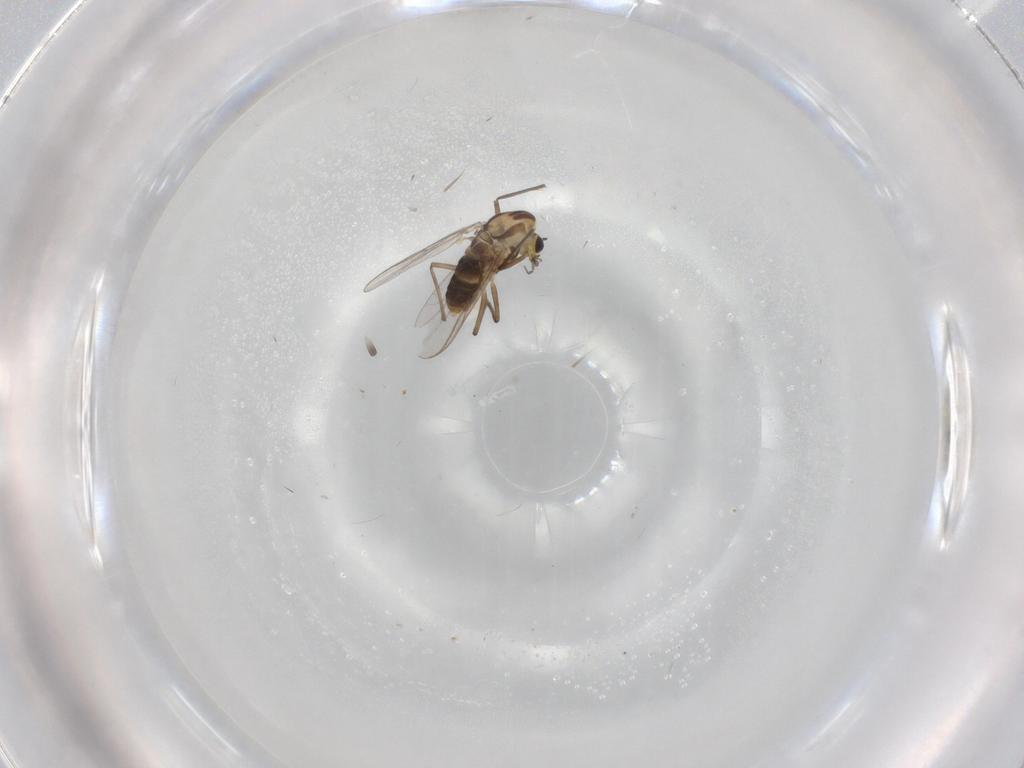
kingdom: Animalia
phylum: Arthropoda
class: Insecta
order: Diptera
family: Chironomidae
